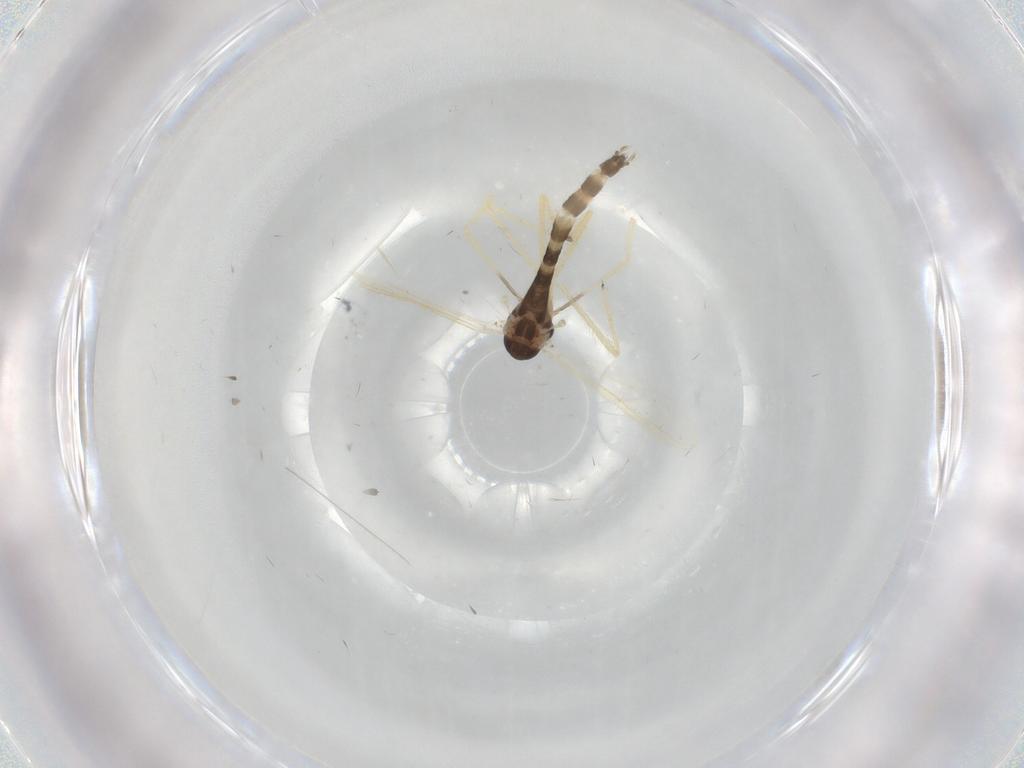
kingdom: Animalia
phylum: Arthropoda
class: Insecta
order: Diptera
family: Chironomidae
